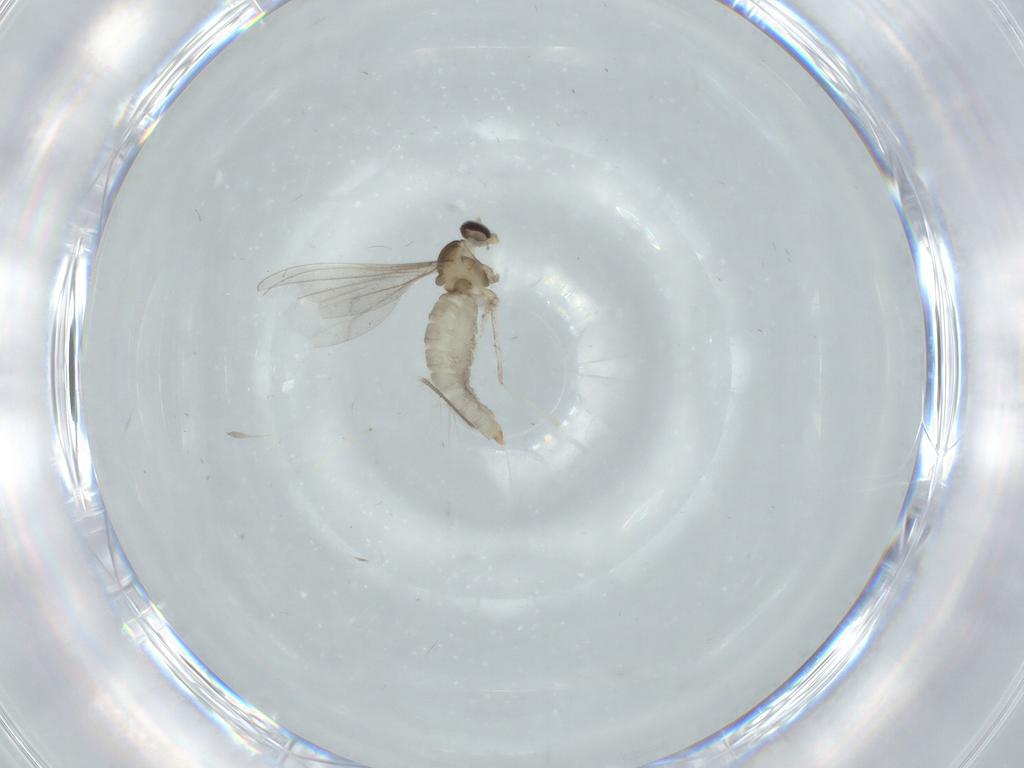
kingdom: Animalia
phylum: Arthropoda
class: Insecta
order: Diptera
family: Cecidomyiidae
